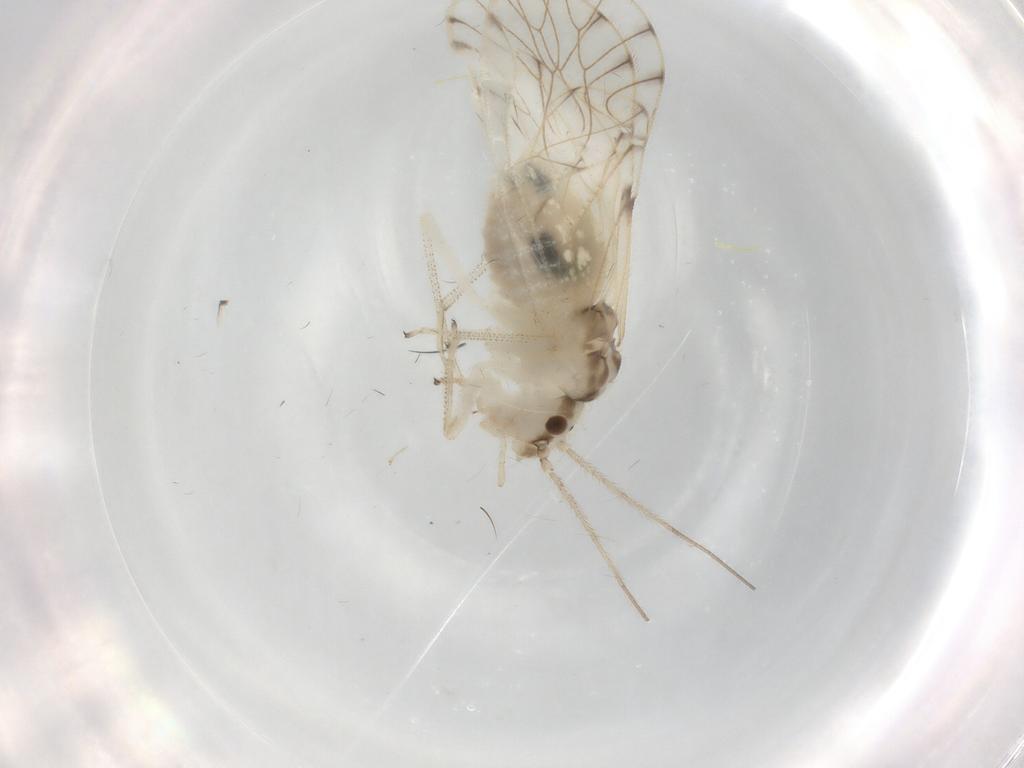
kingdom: Animalia
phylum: Arthropoda
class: Insecta
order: Psocodea
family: Philotarsidae
